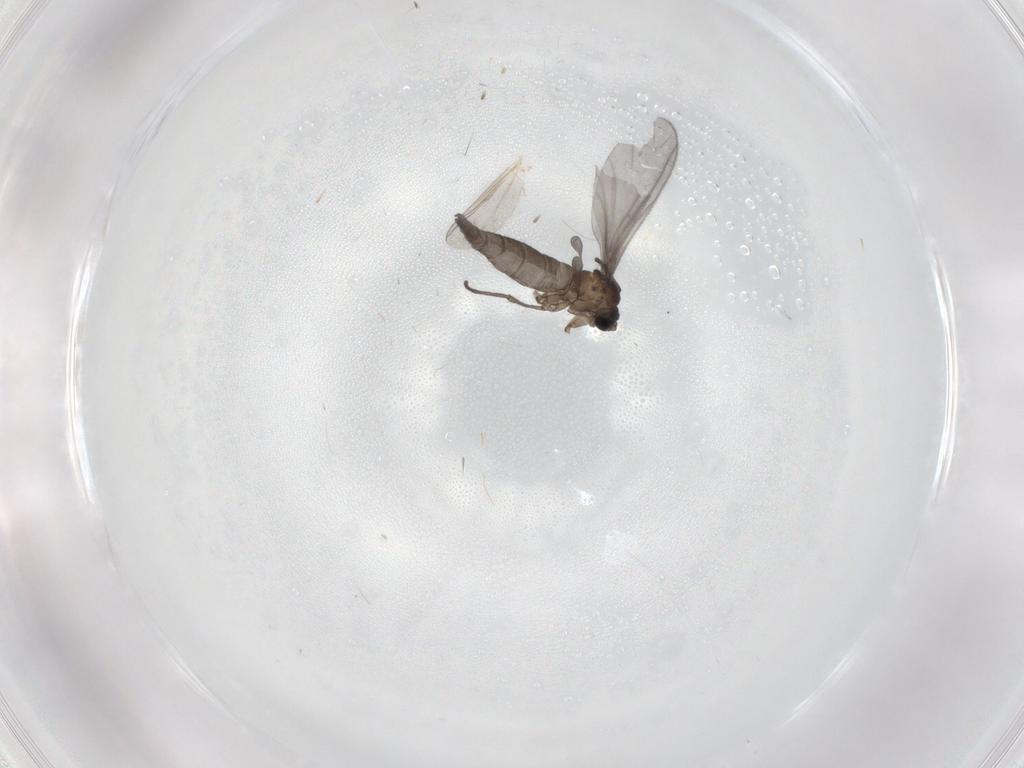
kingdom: Animalia
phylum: Arthropoda
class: Insecta
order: Diptera
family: Sciaridae
